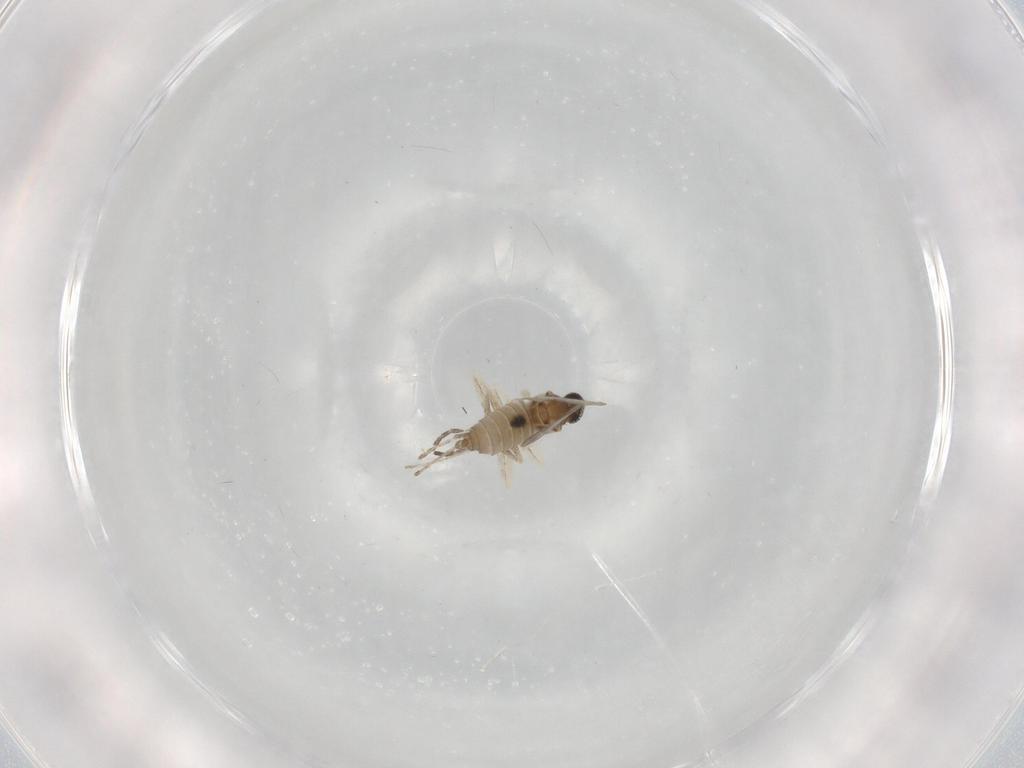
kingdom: Animalia
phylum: Arthropoda
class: Insecta
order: Diptera
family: Cecidomyiidae
